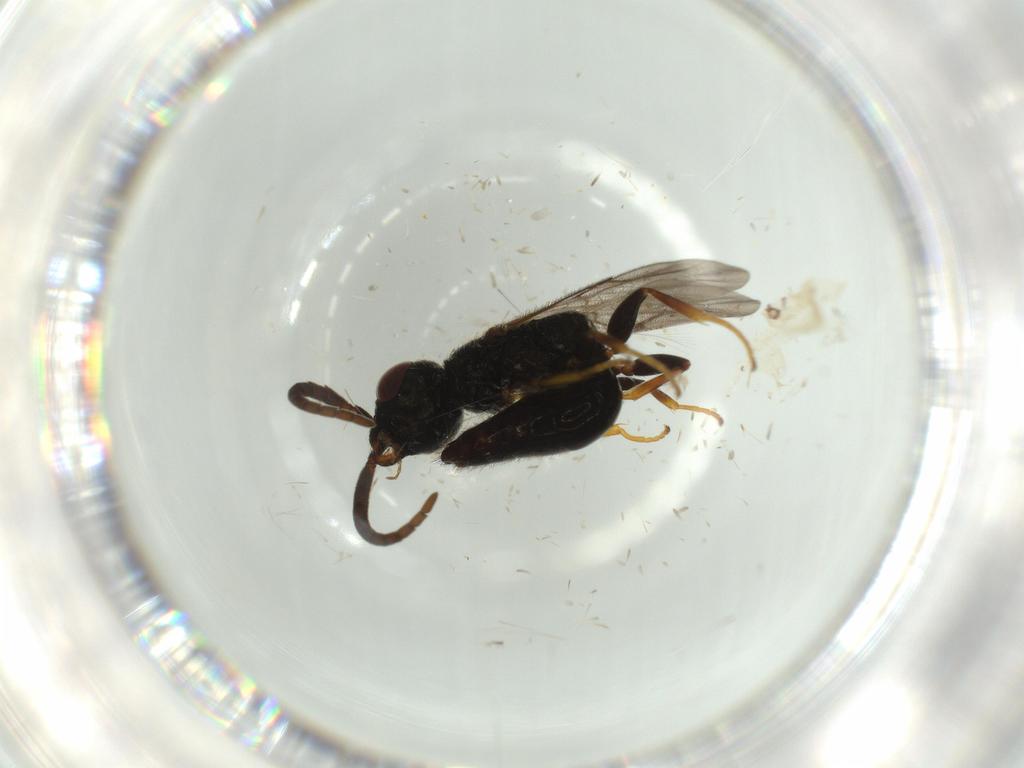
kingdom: Animalia
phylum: Arthropoda
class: Insecta
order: Hymenoptera
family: Bethylidae
